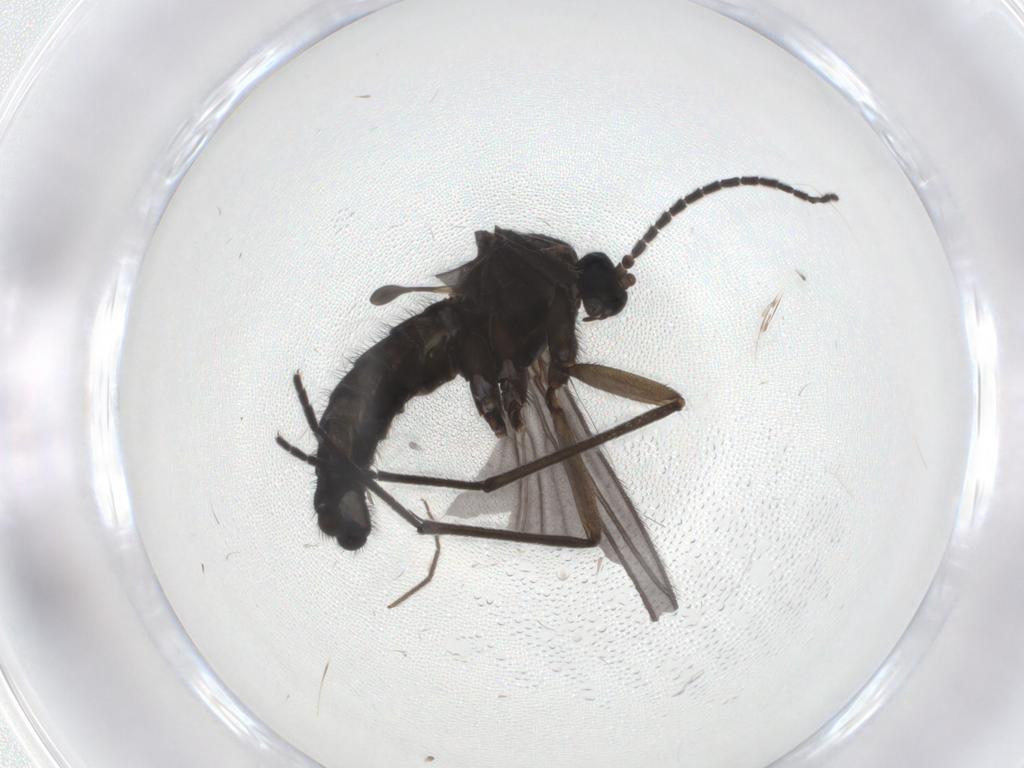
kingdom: Animalia
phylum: Arthropoda
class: Insecta
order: Diptera
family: Sciaridae
